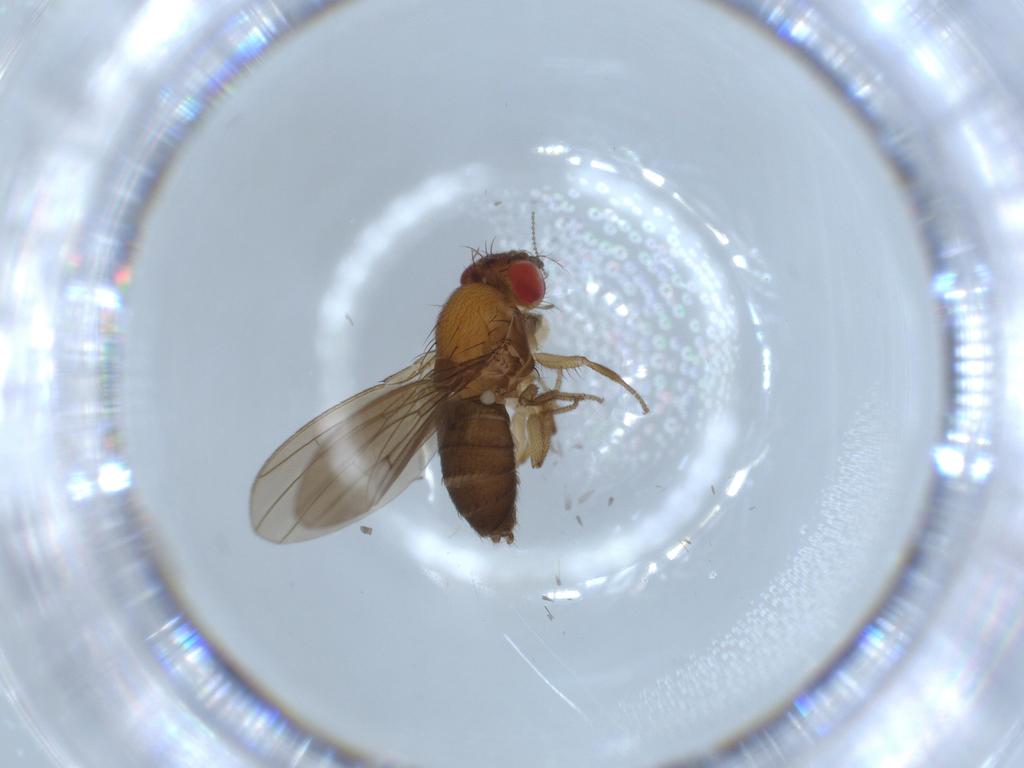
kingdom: Animalia
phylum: Arthropoda
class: Insecta
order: Diptera
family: Drosophilidae
